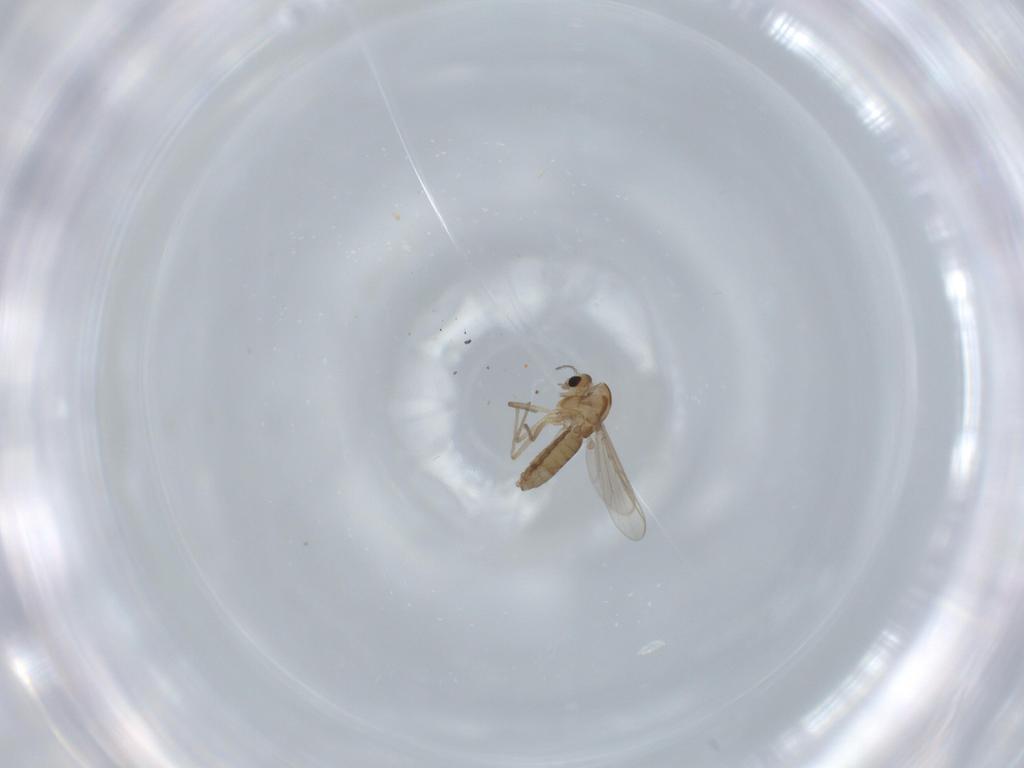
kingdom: Animalia
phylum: Arthropoda
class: Insecta
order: Diptera
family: Chironomidae
